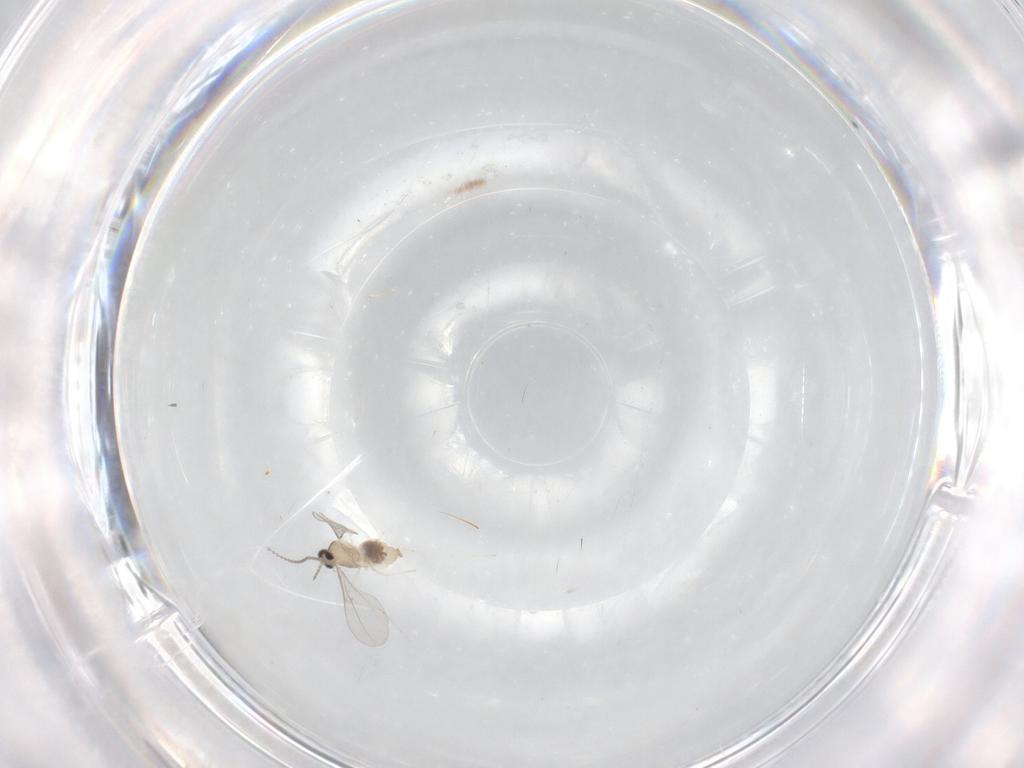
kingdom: Animalia
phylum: Arthropoda
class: Insecta
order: Diptera
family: Cecidomyiidae
